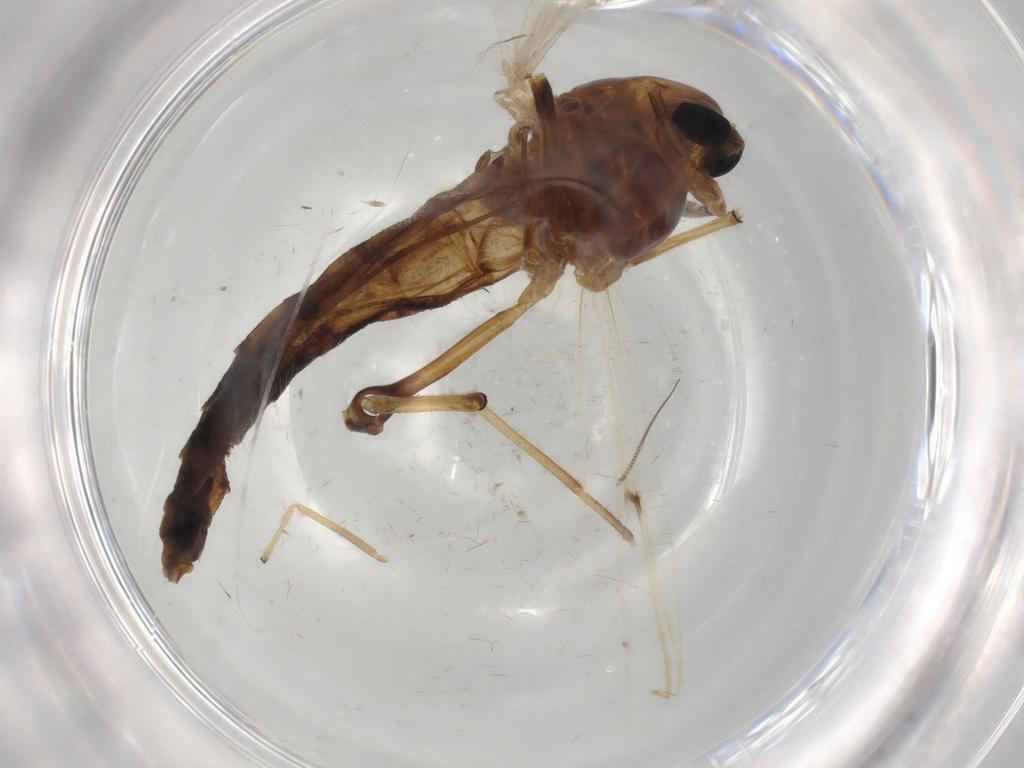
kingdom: Animalia
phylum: Arthropoda
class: Insecta
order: Diptera
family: Chironomidae
